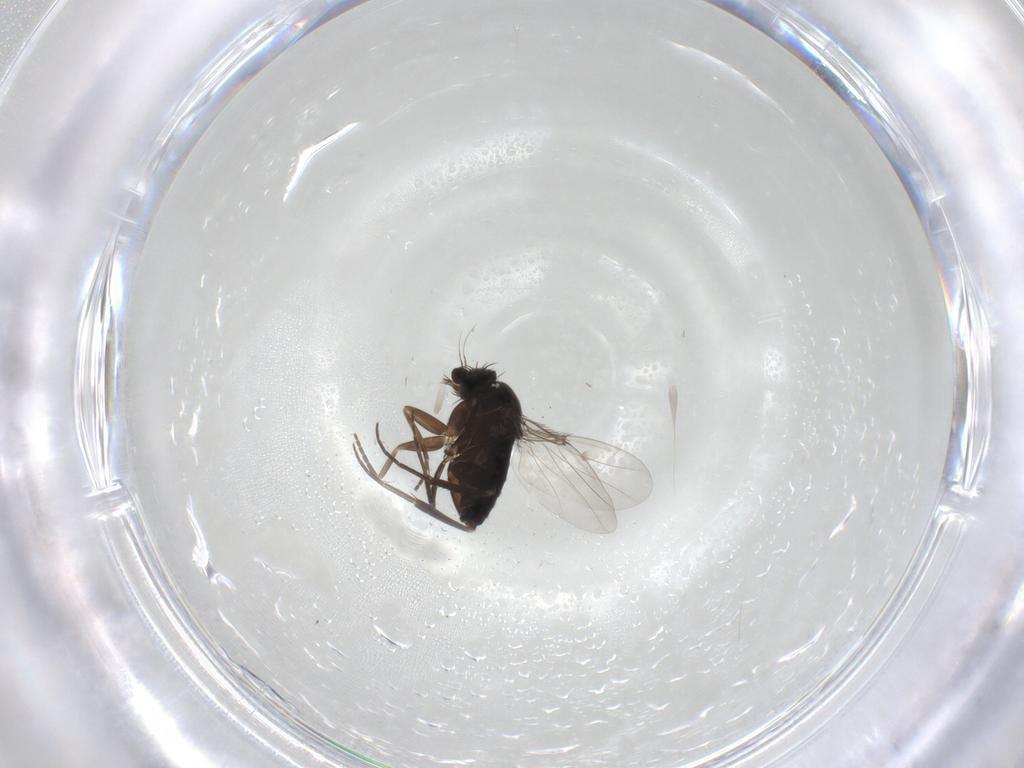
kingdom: Animalia
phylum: Arthropoda
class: Insecta
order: Diptera
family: Phoridae
